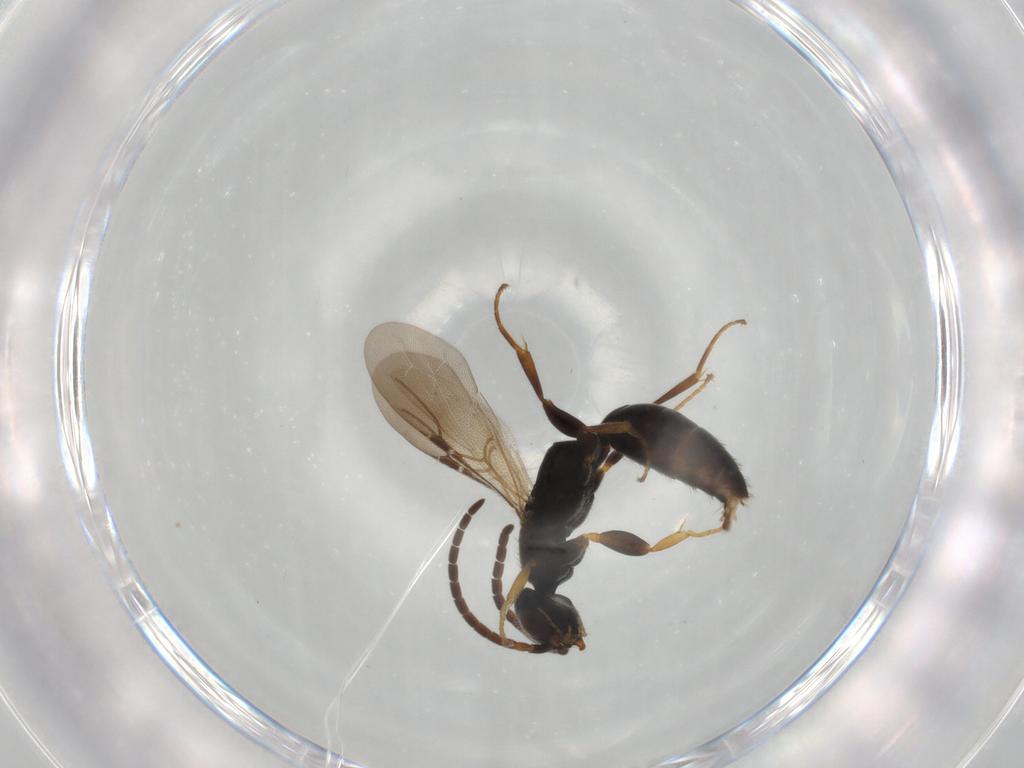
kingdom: Animalia
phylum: Arthropoda
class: Insecta
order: Hymenoptera
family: Bethylidae
